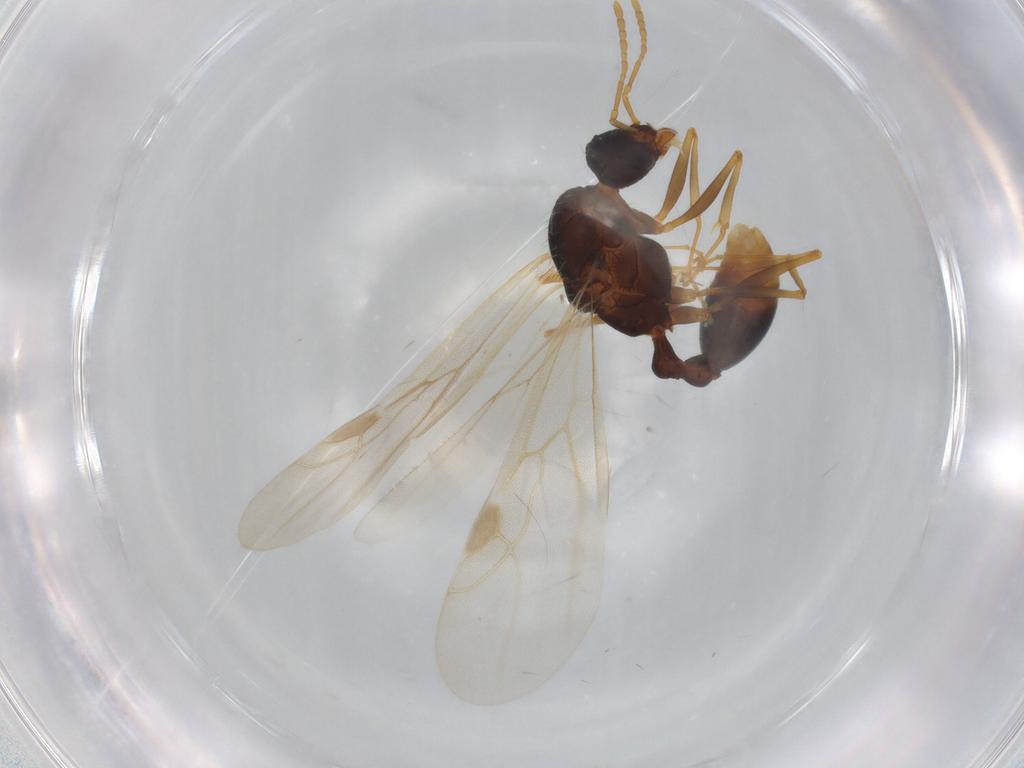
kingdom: Animalia
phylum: Arthropoda
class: Insecta
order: Hymenoptera
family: Formicidae
